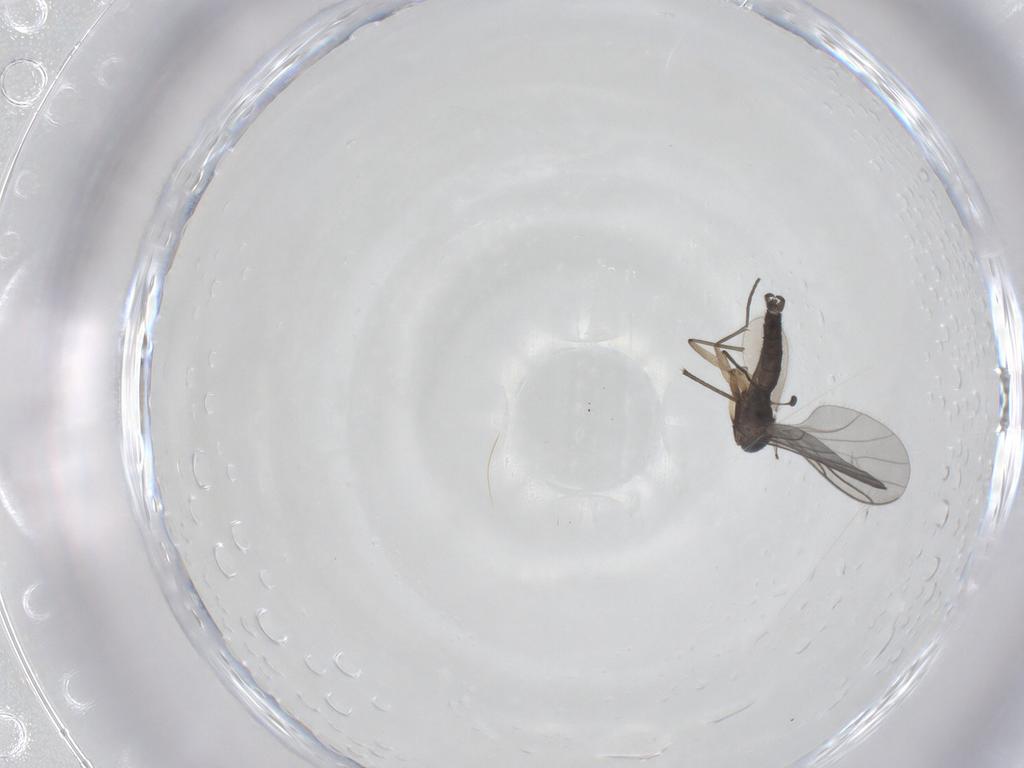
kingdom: Animalia
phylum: Arthropoda
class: Insecta
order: Diptera
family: Sciaridae
